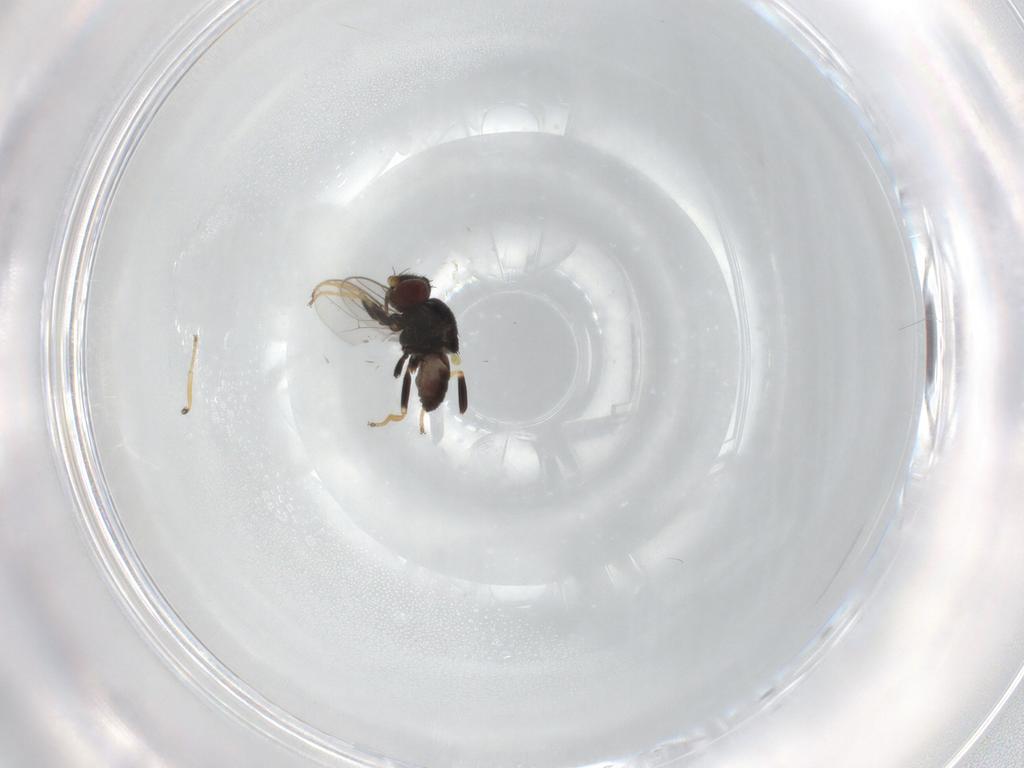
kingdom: Animalia
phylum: Arthropoda
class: Insecta
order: Diptera
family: Chloropidae
